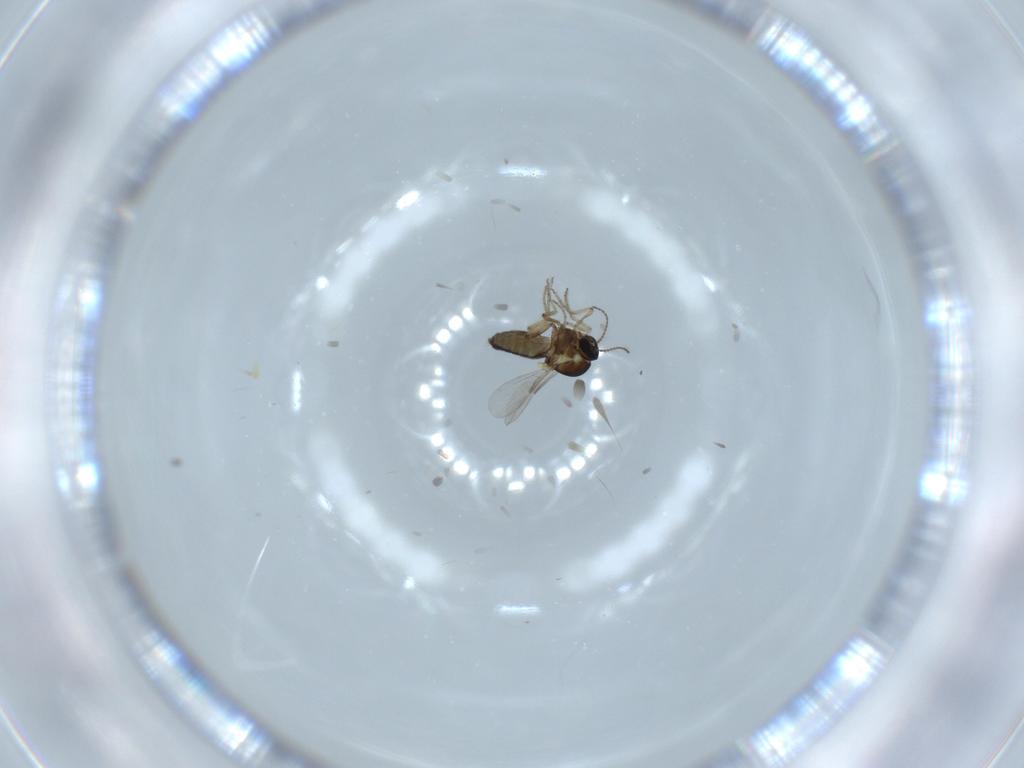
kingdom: Animalia
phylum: Arthropoda
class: Insecta
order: Diptera
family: Ceratopogonidae
